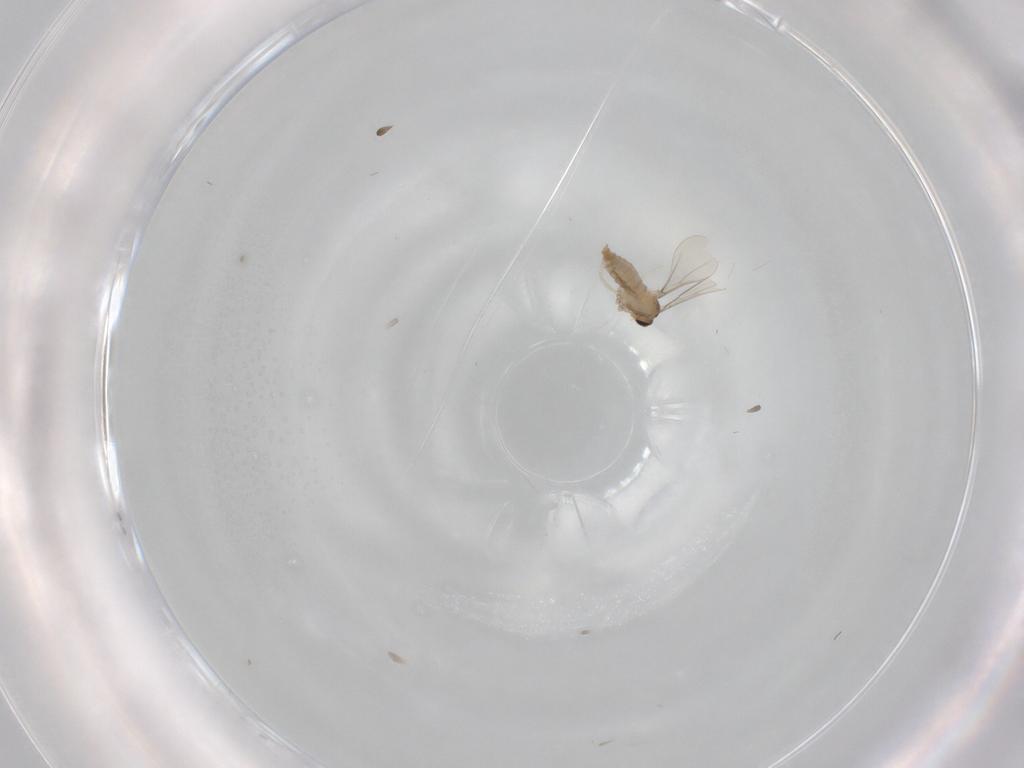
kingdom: Animalia
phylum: Arthropoda
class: Insecta
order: Diptera
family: Cecidomyiidae
